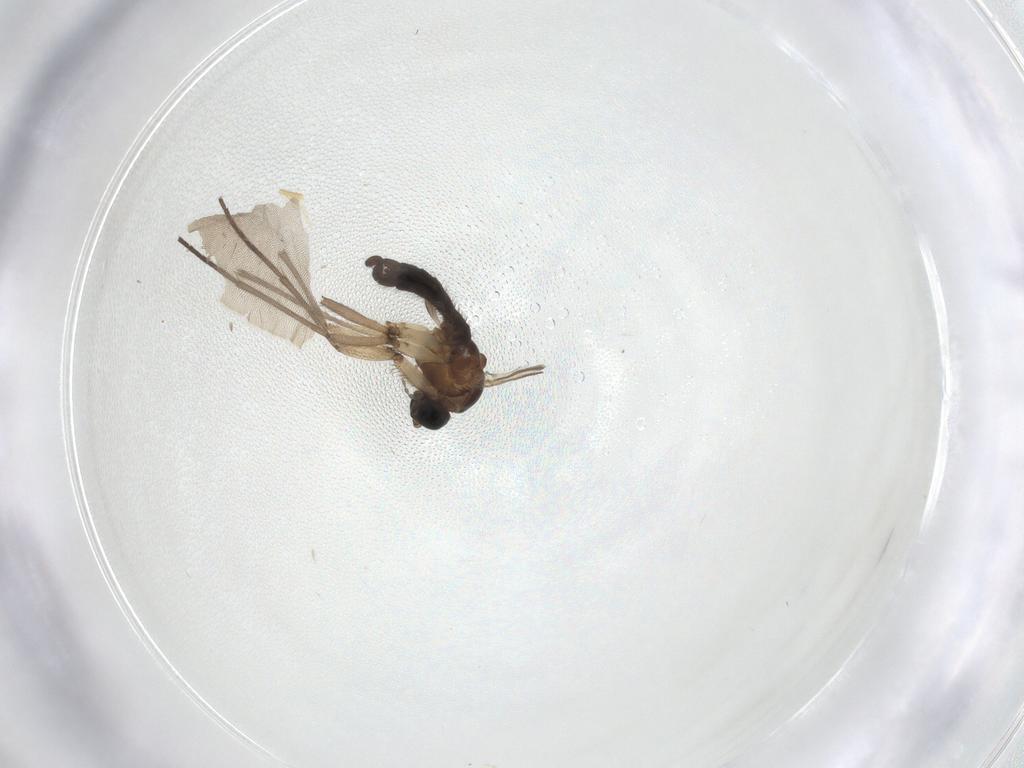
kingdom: Animalia
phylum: Arthropoda
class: Insecta
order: Diptera
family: Sciaridae
